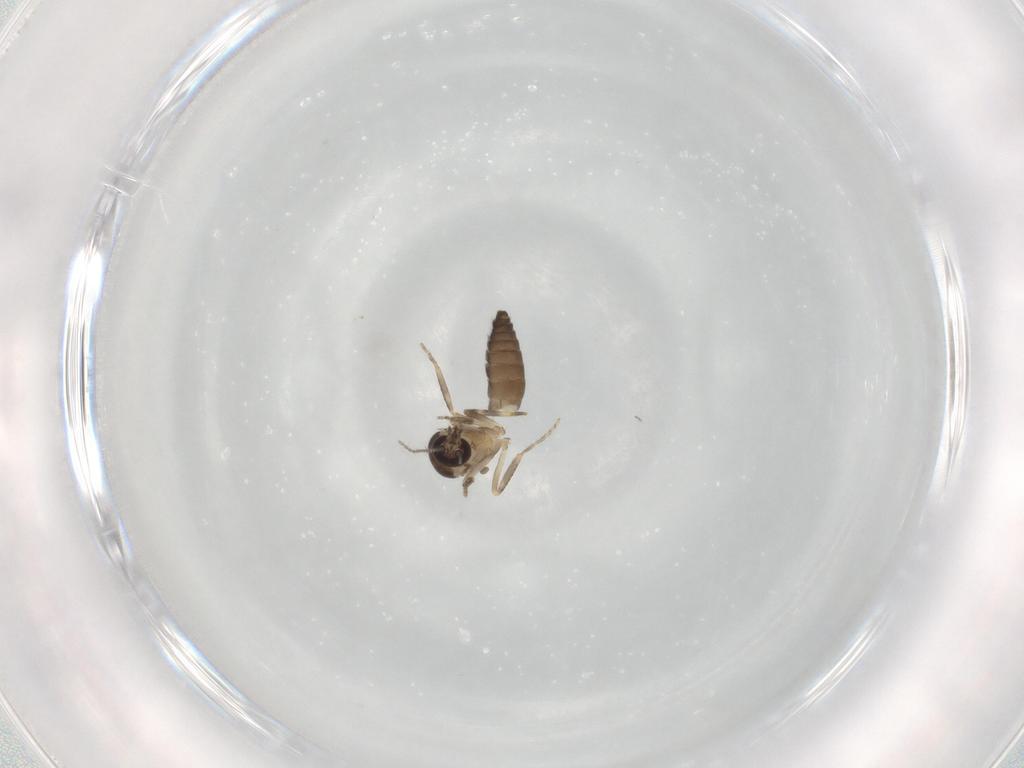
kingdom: Animalia
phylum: Arthropoda
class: Insecta
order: Diptera
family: Ceratopogonidae
